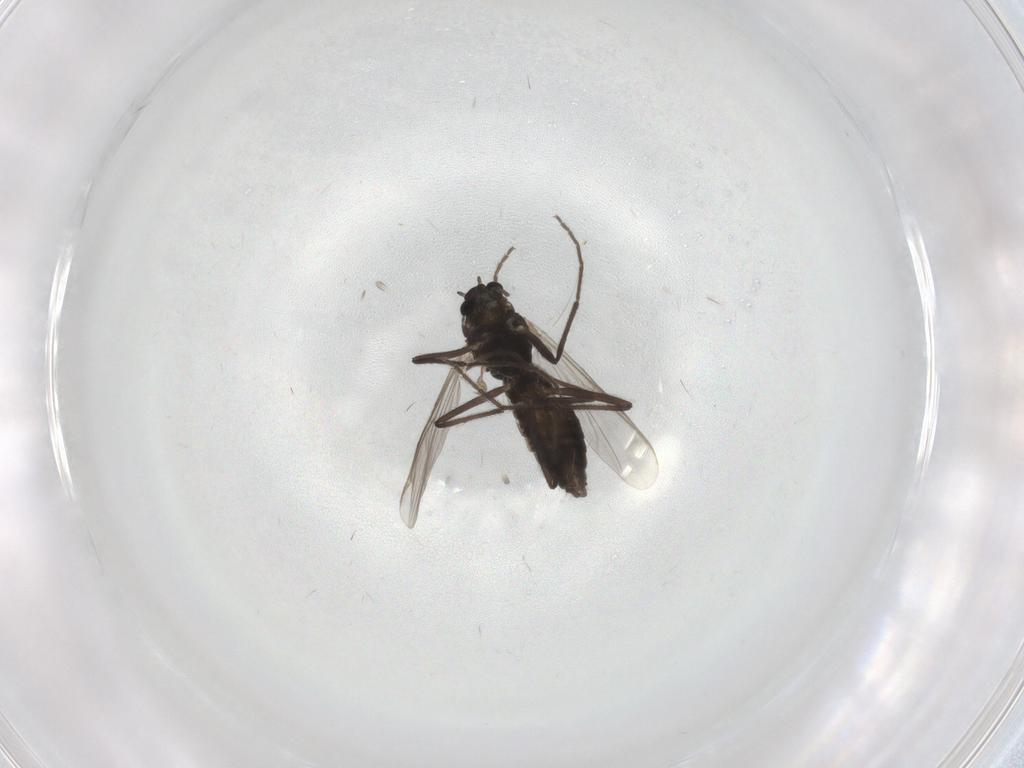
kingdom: Animalia
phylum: Arthropoda
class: Insecta
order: Diptera
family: Chironomidae
